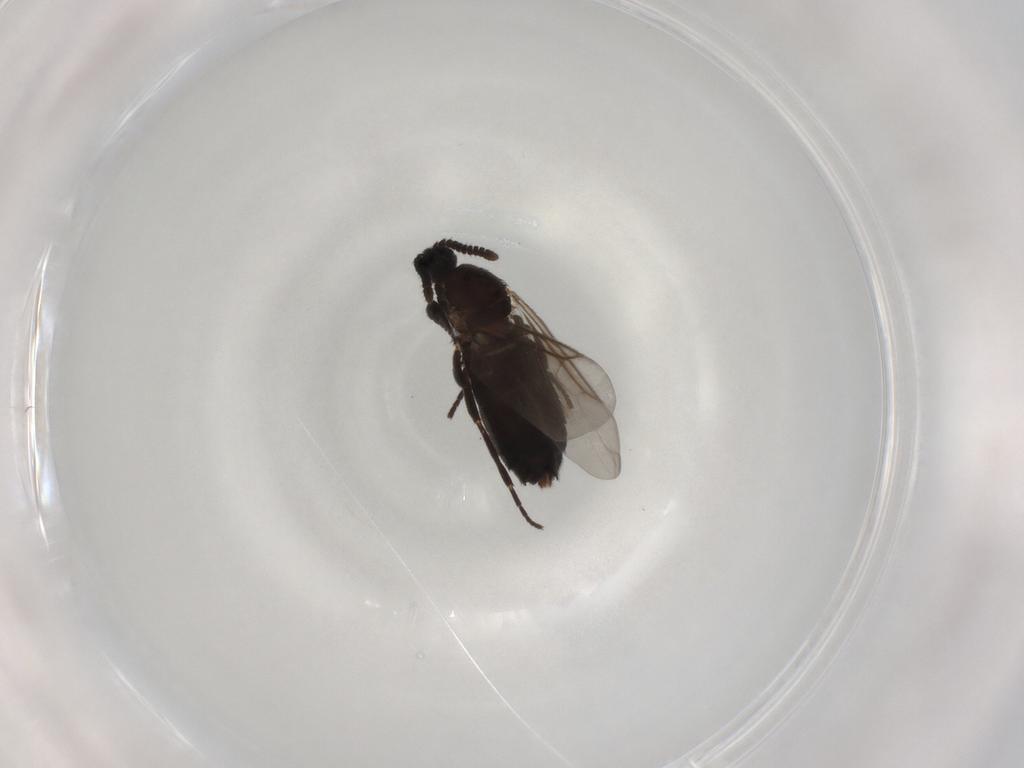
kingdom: Animalia
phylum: Arthropoda
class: Insecta
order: Diptera
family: Scatopsidae
